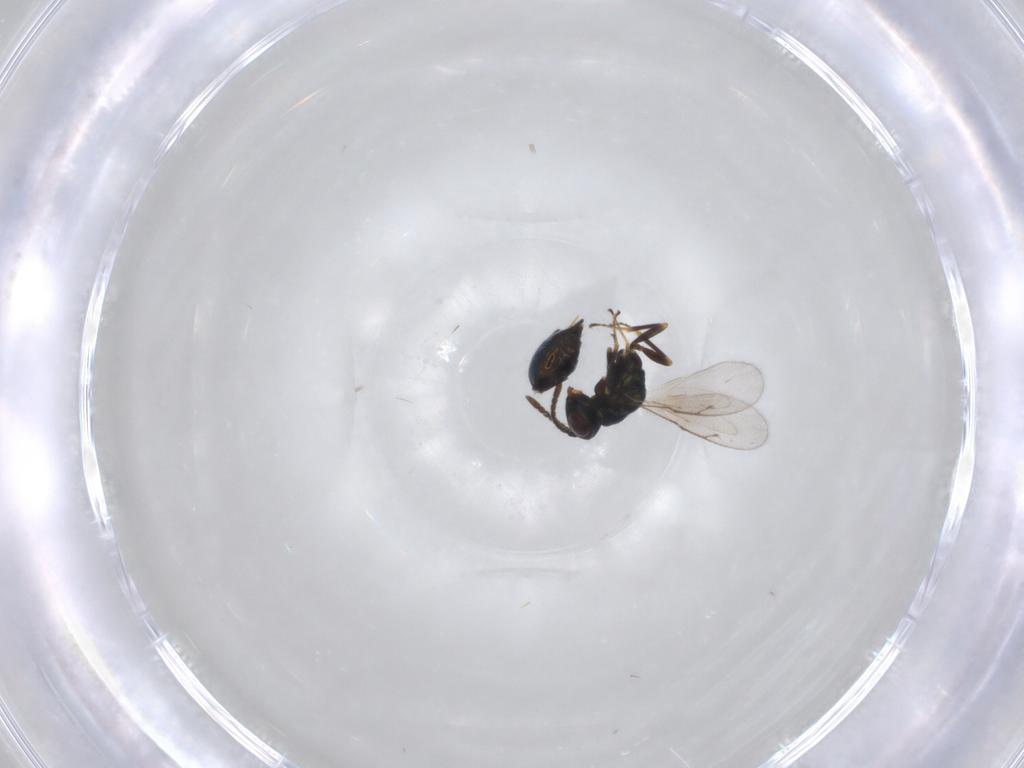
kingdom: Animalia
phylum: Arthropoda
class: Insecta
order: Hymenoptera
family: Pteromalidae
